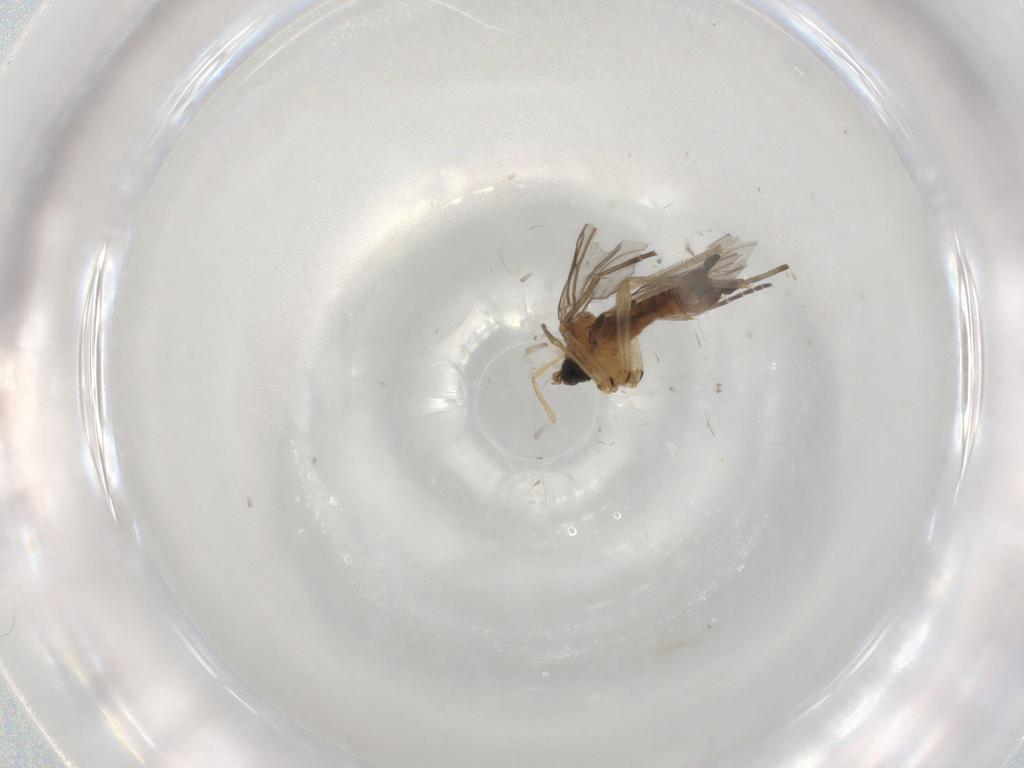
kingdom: Animalia
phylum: Arthropoda
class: Insecta
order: Diptera
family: Sciaridae
